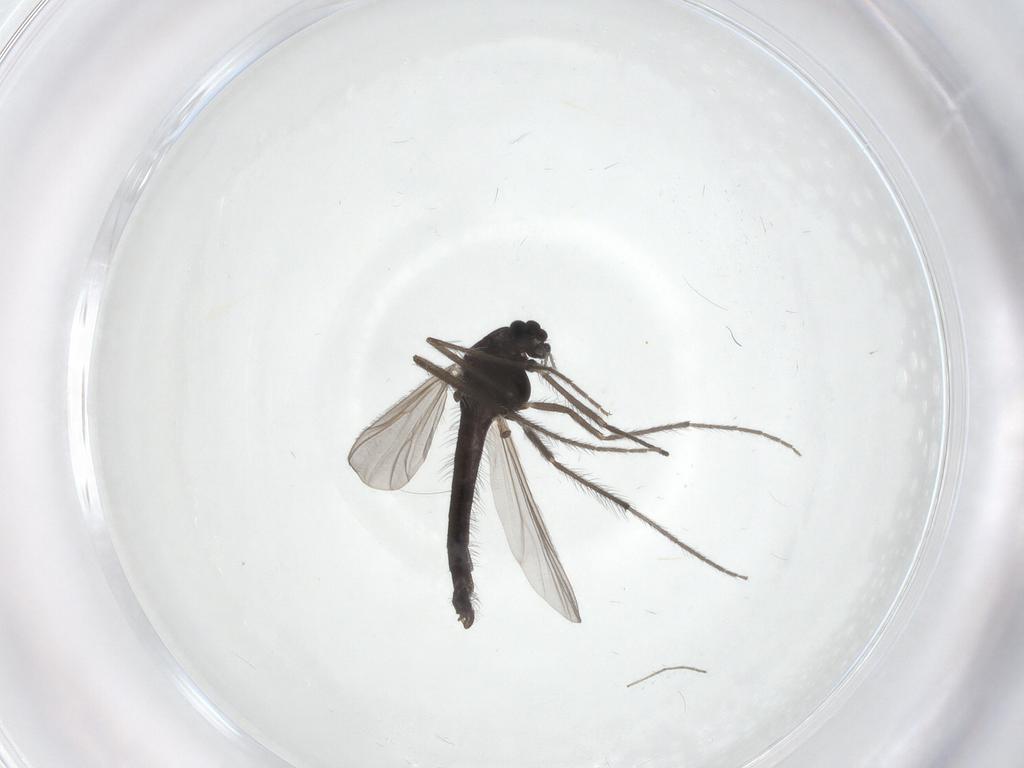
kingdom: Animalia
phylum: Arthropoda
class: Insecta
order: Diptera
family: Chironomidae
